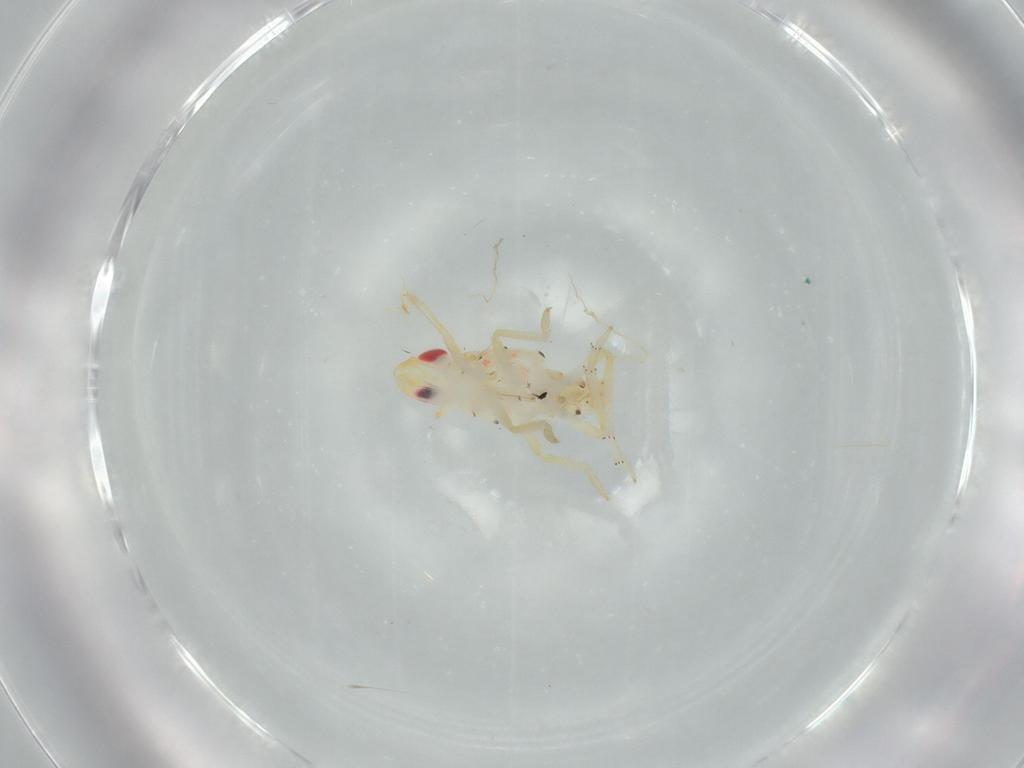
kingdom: Animalia
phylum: Arthropoda
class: Insecta
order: Hemiptera
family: Tropiduchidae
